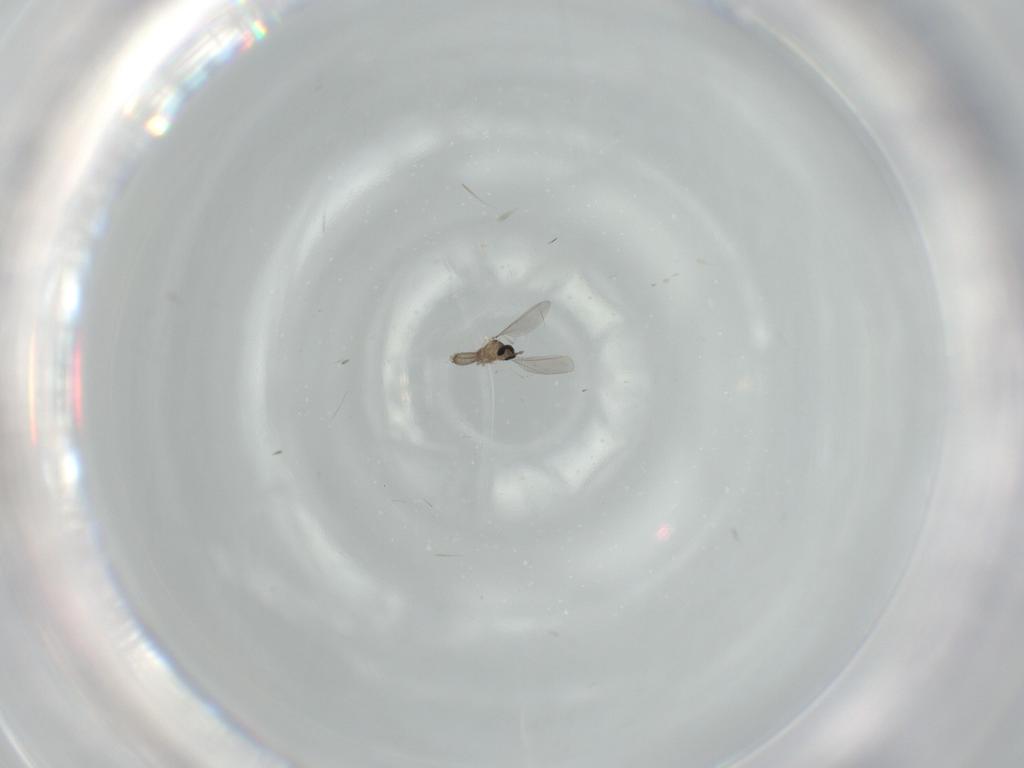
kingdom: Animalia
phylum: Arthropoda
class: Insecta
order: Diptera
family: Cecidomyiidae
